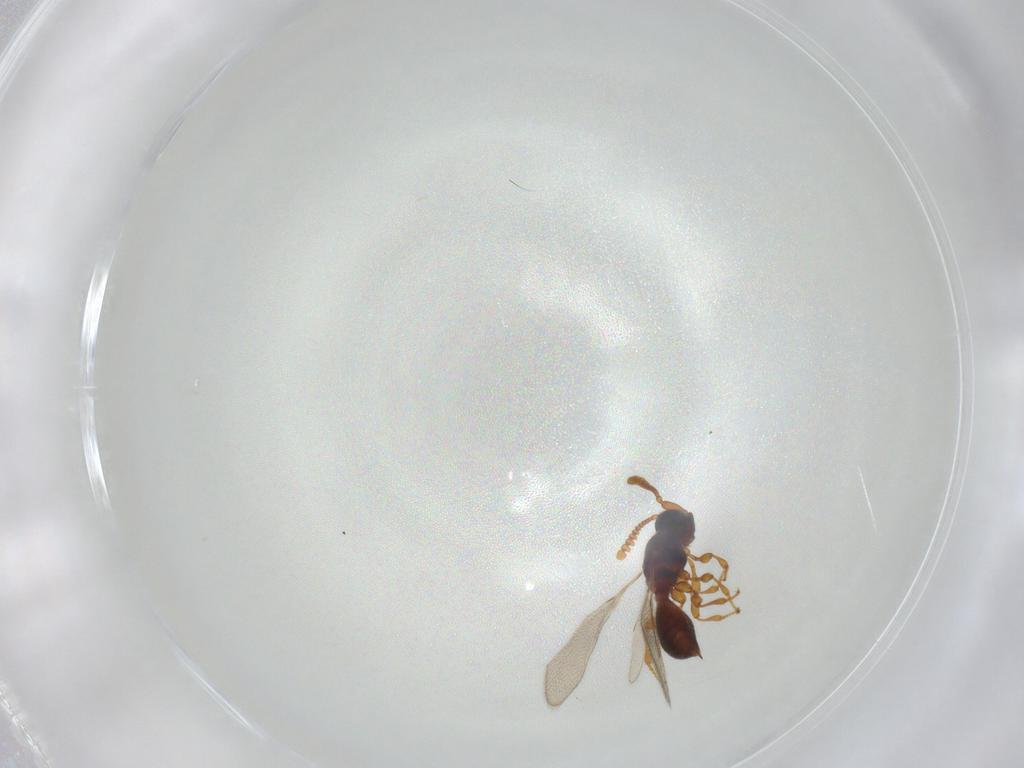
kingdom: Animalia
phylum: Arthropoda
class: Insecta
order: Hymenoptera
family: Diapriidae
